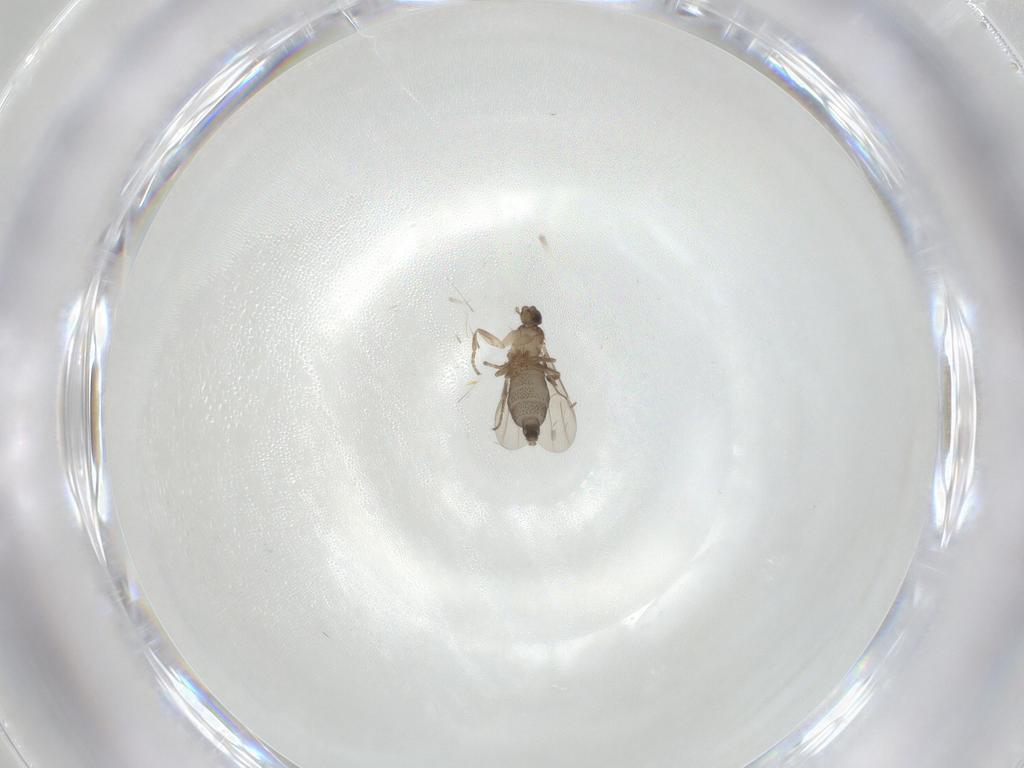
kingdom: Animalia
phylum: Arthropoda
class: Insecta
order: Diptera
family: Phoridae
